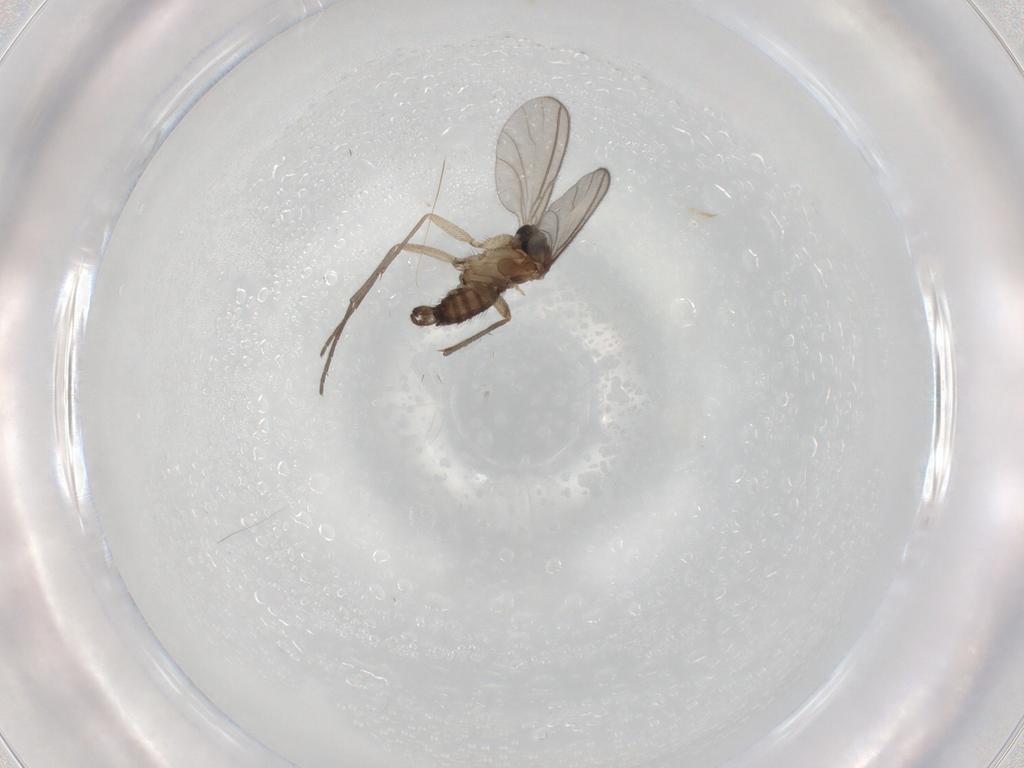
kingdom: Animalia
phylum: Arthropoda
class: Insecta
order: Diptera
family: Sciaridae
